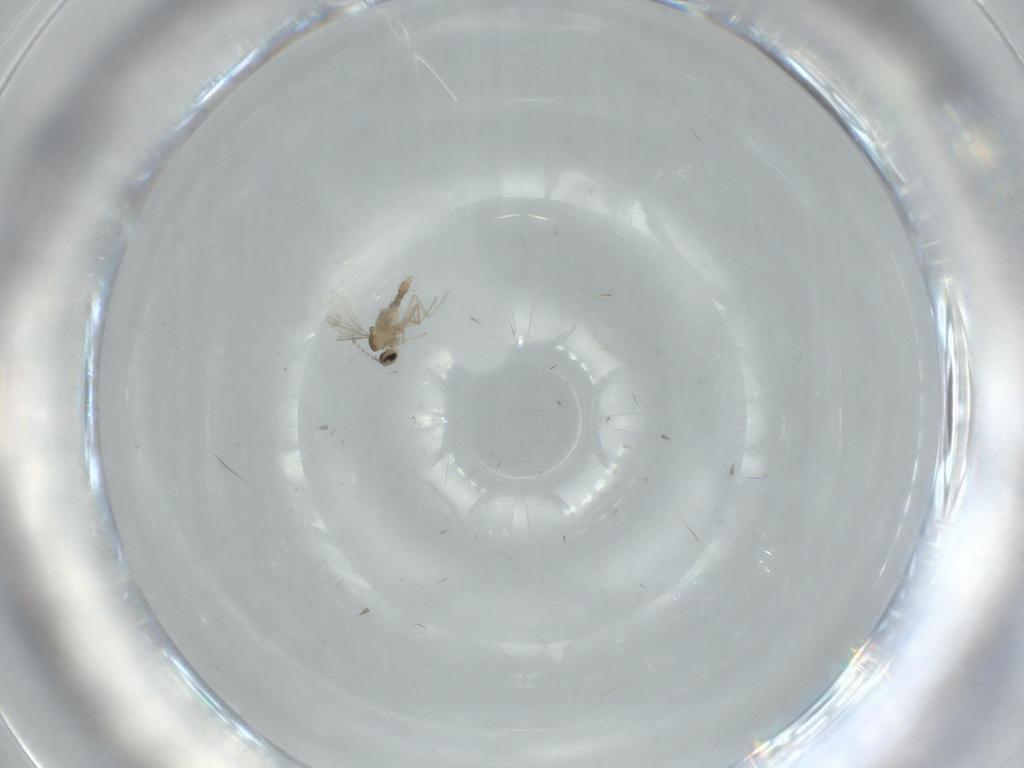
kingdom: Animalia
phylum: Arthropoda
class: Insecta
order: Diptera
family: Cecidomyiidae
